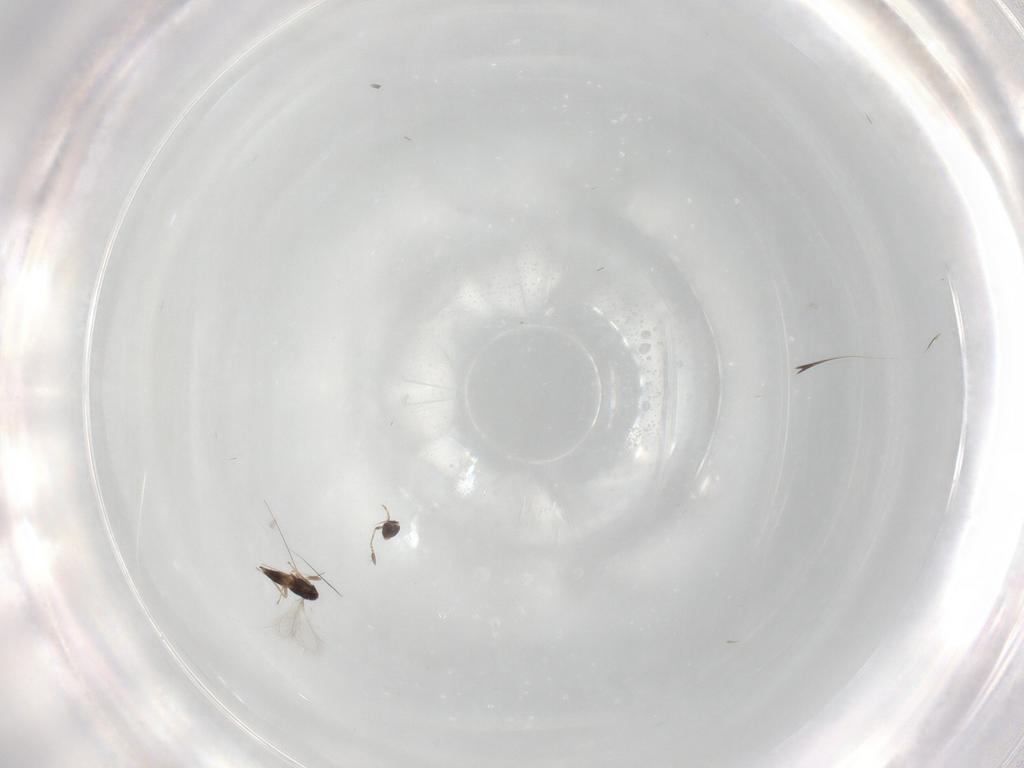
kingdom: Animalia
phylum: Arthropoda
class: Insecta
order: Hymenoptera
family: Mymaridae
